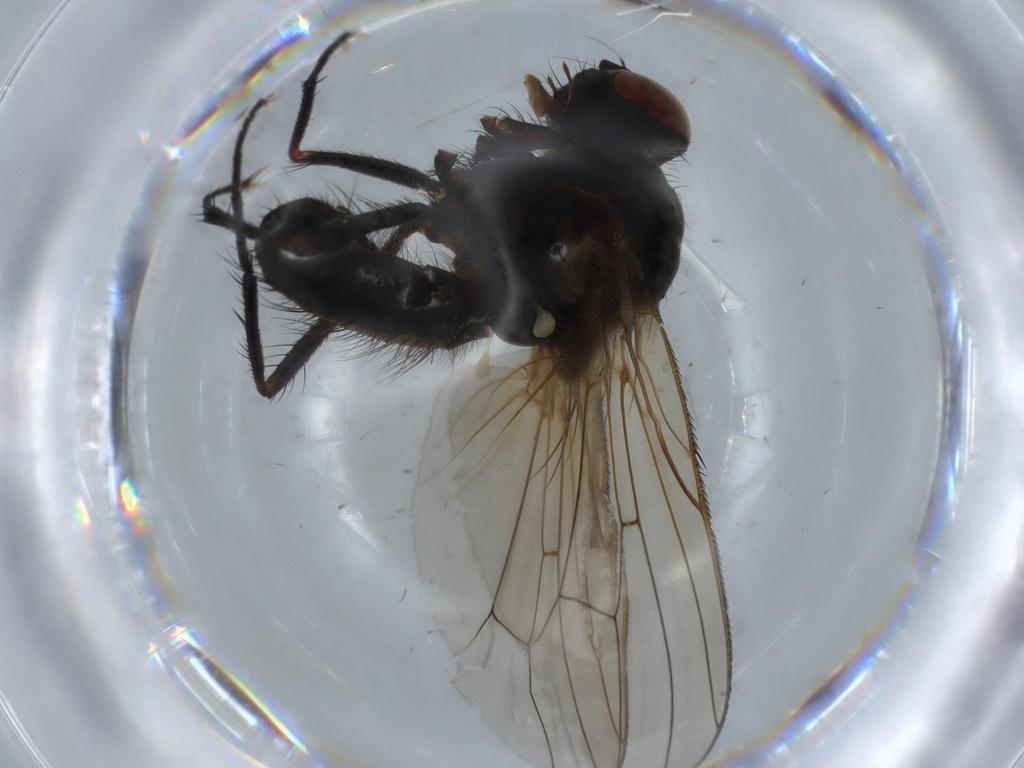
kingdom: Animalia
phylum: Arthropoda
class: Insecta
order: Diptera
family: Anthomyiidae
